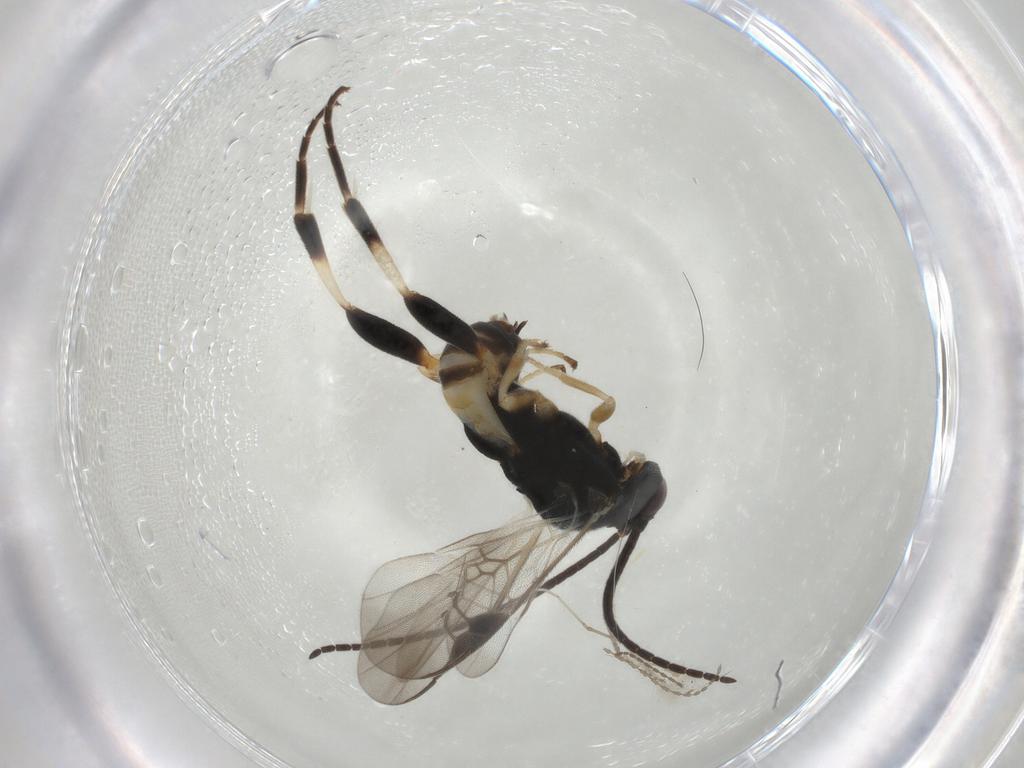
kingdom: Animalia
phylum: Arthropoda
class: Insecta
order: Hymenoptera
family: Braconidae
